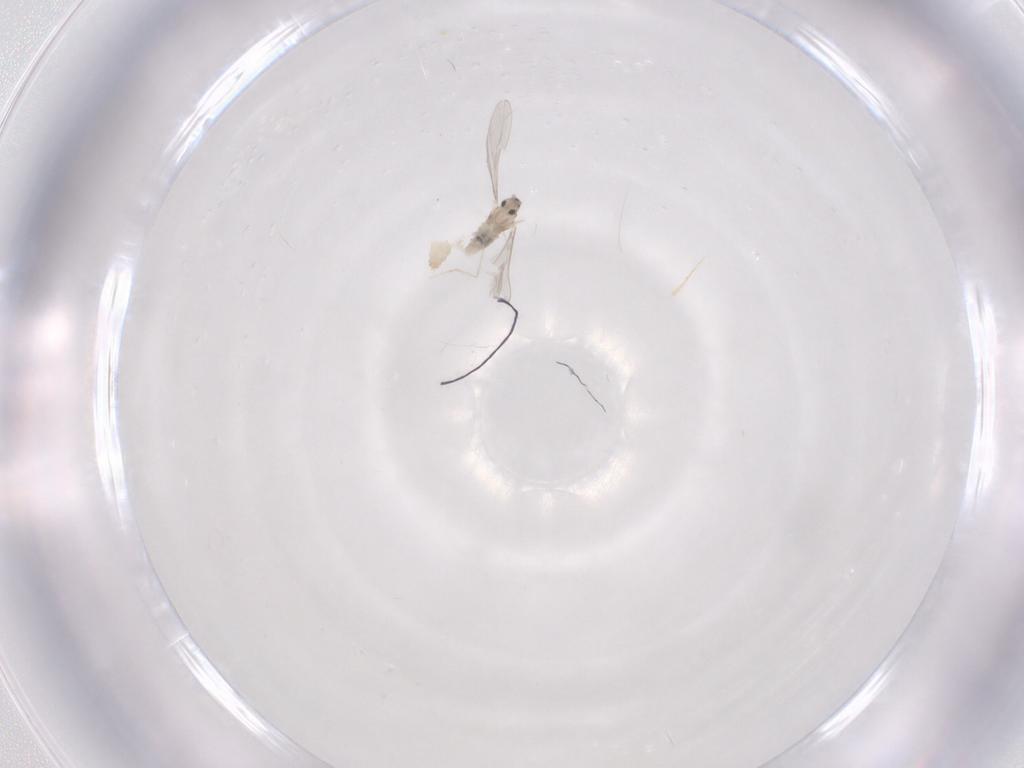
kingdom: Animalia
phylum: Arthropoda
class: Insecta
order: Diptera
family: Cecidomyiidae
